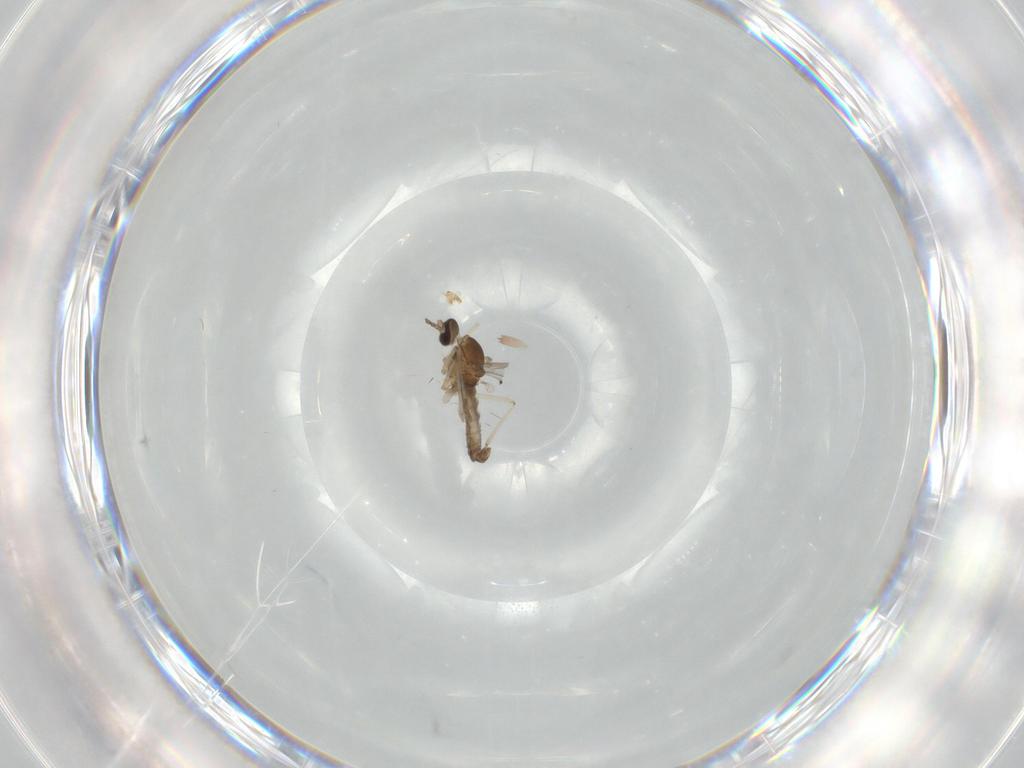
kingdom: Animalia
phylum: Arthropoda
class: Insecta
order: Diptera
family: Cecidomyiidae
